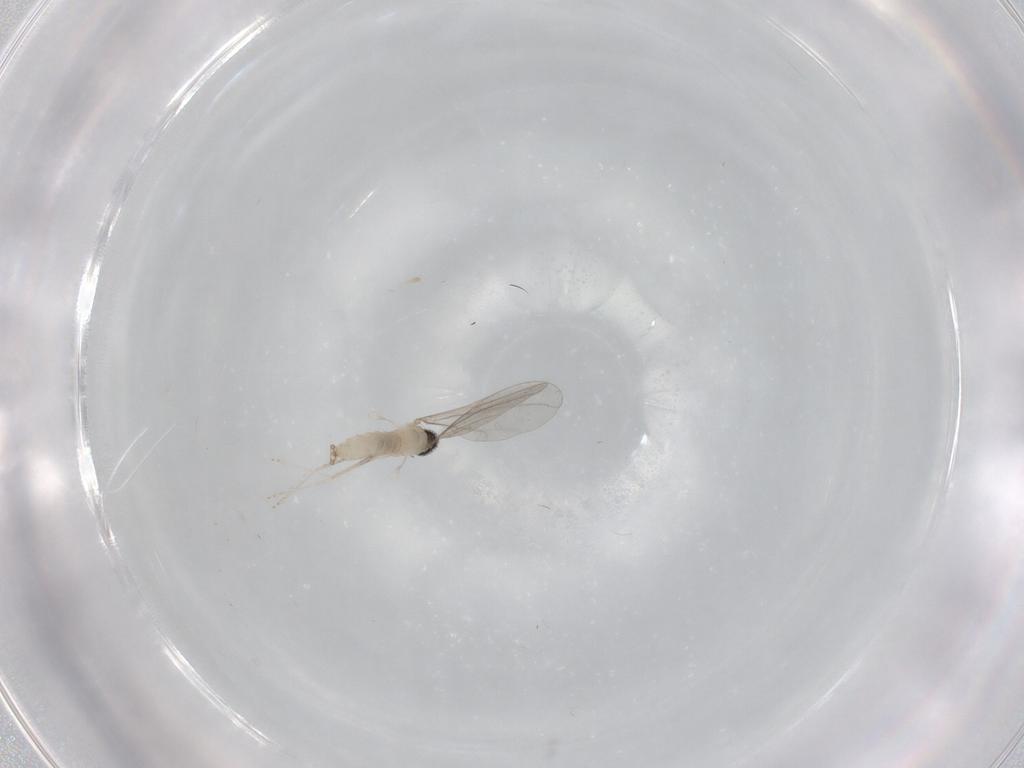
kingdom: Animalia
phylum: Arthropoda
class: Insecta
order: Diptera
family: Cecidomyiidae
